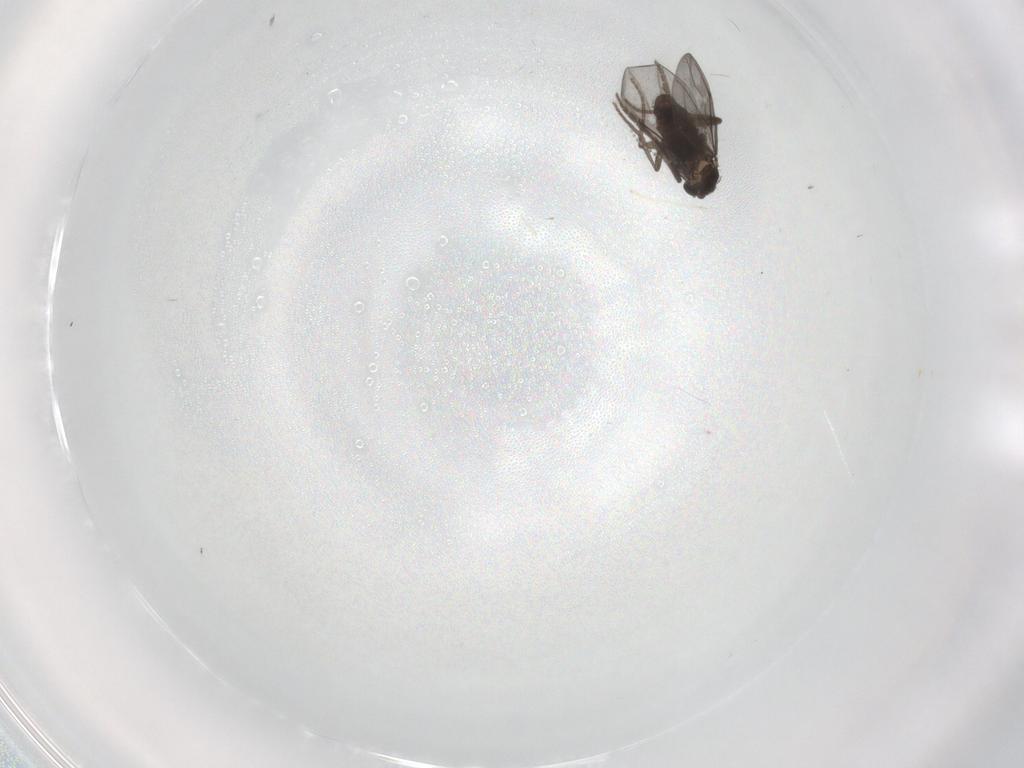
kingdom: Animalia
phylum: Arthropoda
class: Insecta
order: Diptera
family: Phoridae
